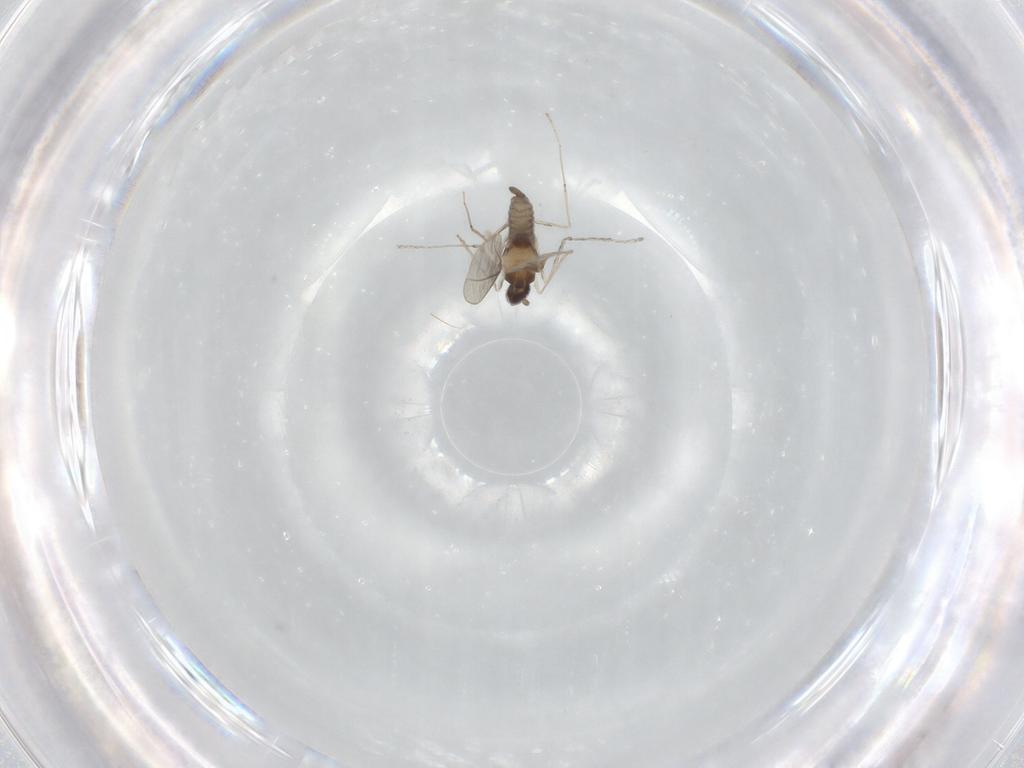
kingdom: Animalia
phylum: Arthropoda
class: Insecta
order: Diptera
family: Cecidomyiidae
